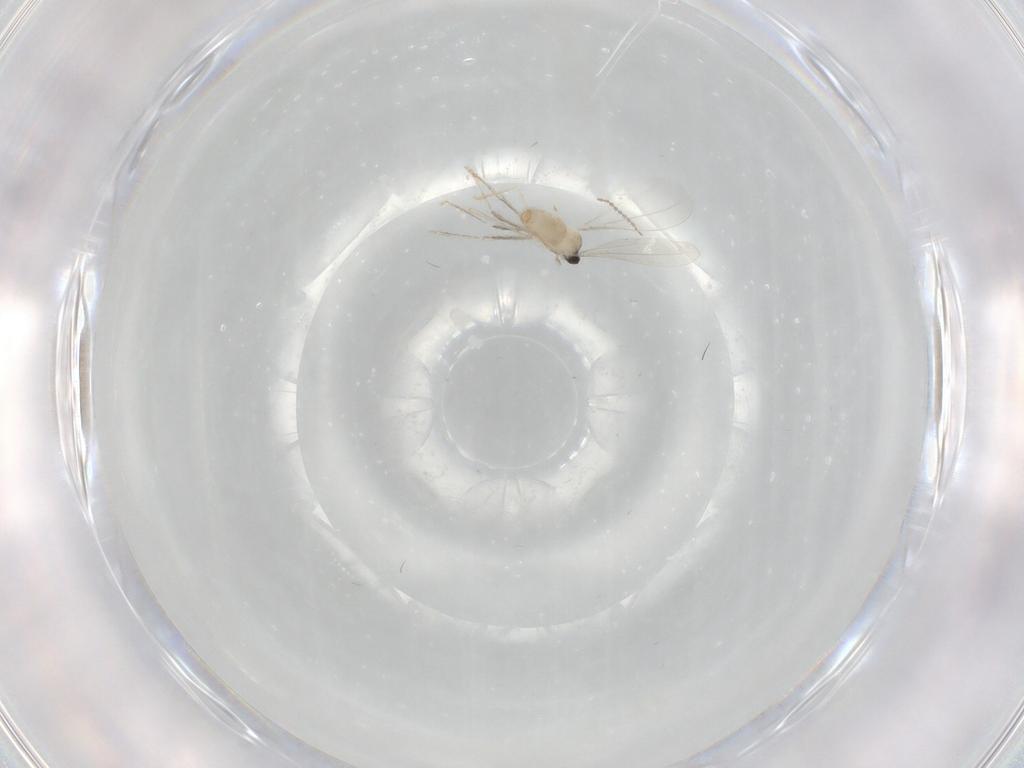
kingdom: Animalia
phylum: Arthropoda
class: Insecta
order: Diptera
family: Cecidomyiidae
